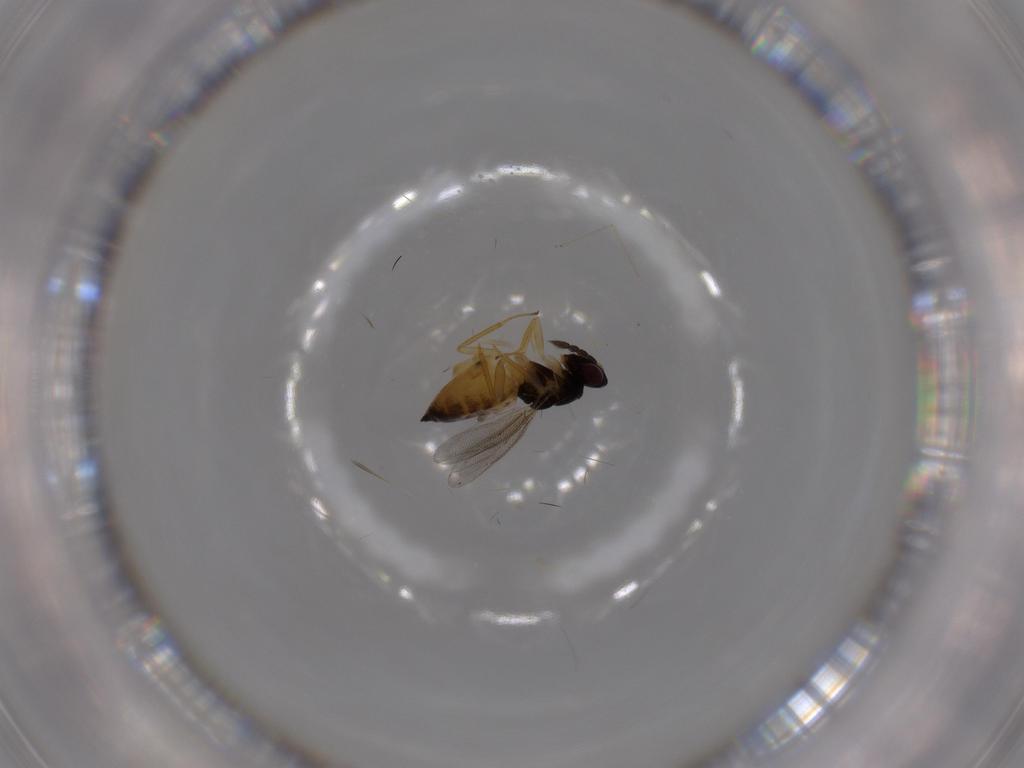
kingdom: Animalia
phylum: Arthropoda
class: Insecta
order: Hymenoptera
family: Eulophidae
